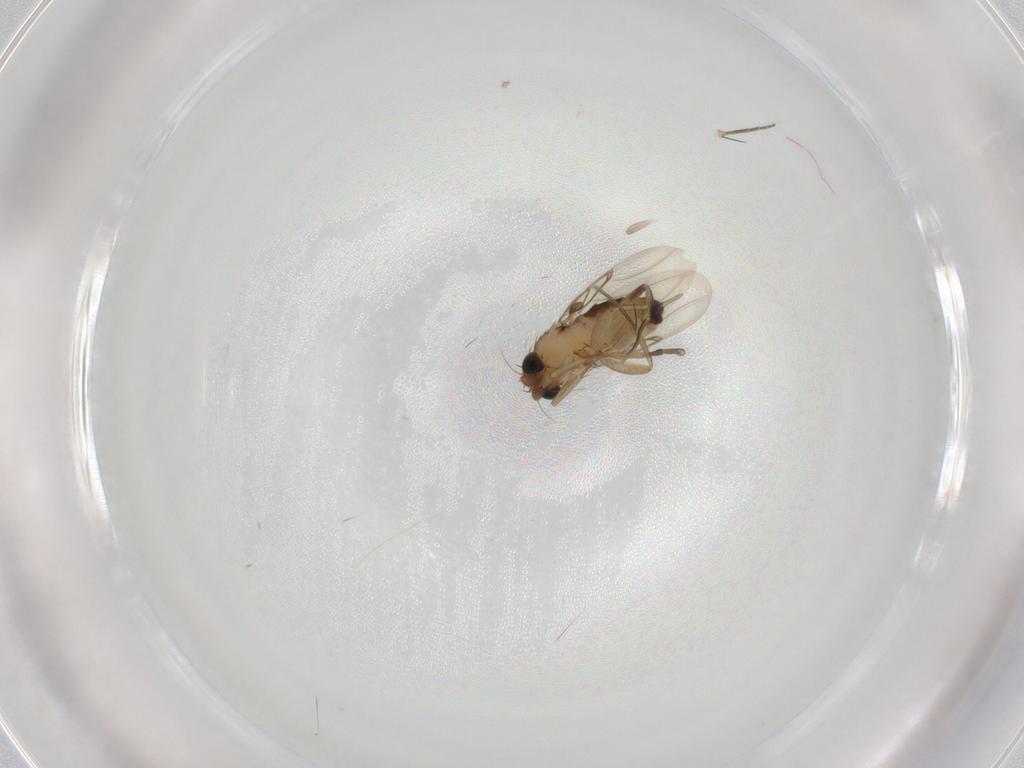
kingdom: Animalia
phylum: Arthropoda
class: Insecta
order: Diptera
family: Phoridae
